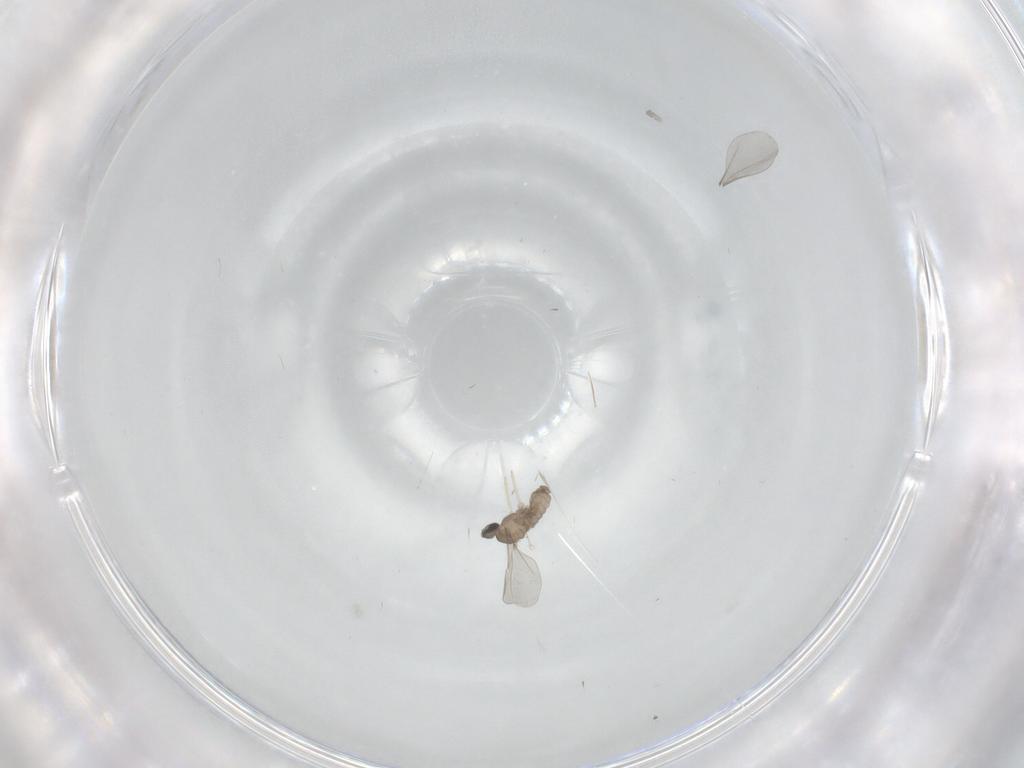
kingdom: Animalia
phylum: Arthropoda
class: Insecta
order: Diptera
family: Psychodidae
